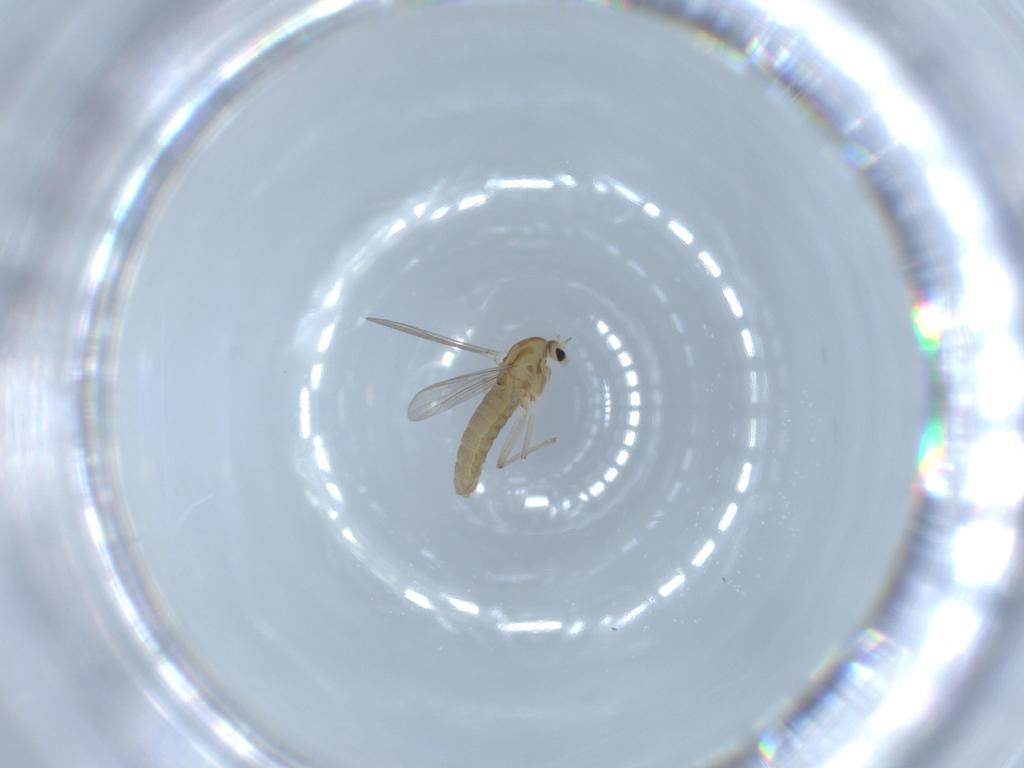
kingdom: Animalia
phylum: Arthropoda
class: Insecta
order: Diptera
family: Chironomidae
